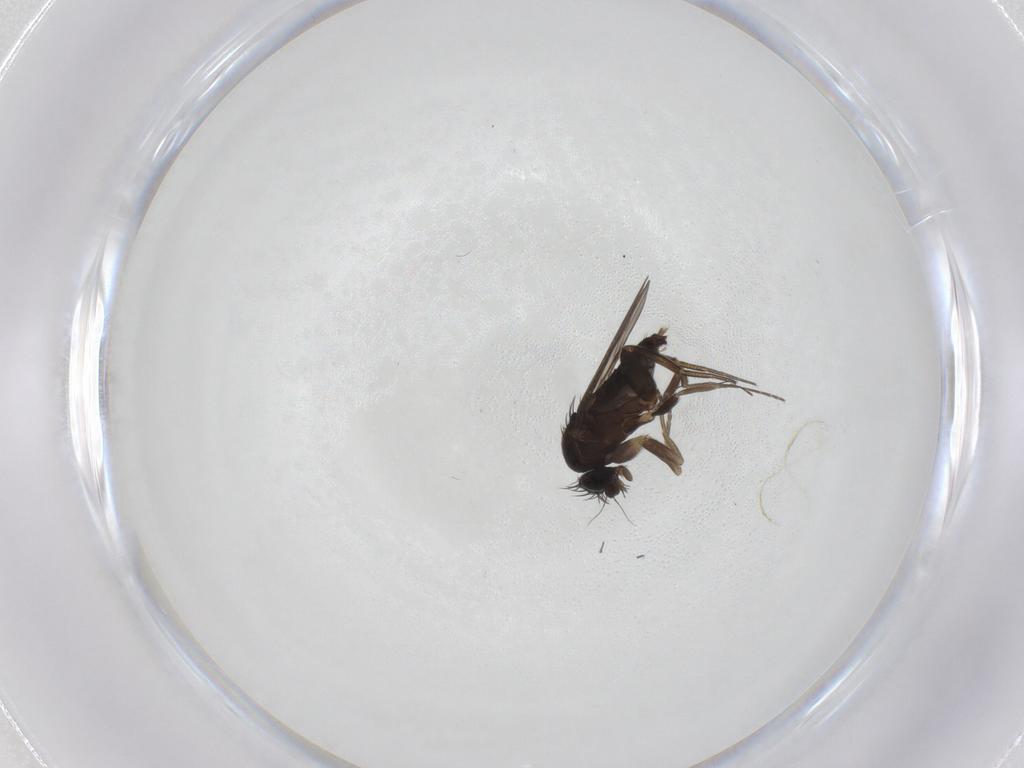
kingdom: Animalia
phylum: Arthropoda
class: Insecta
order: Diptera
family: Phoridae
